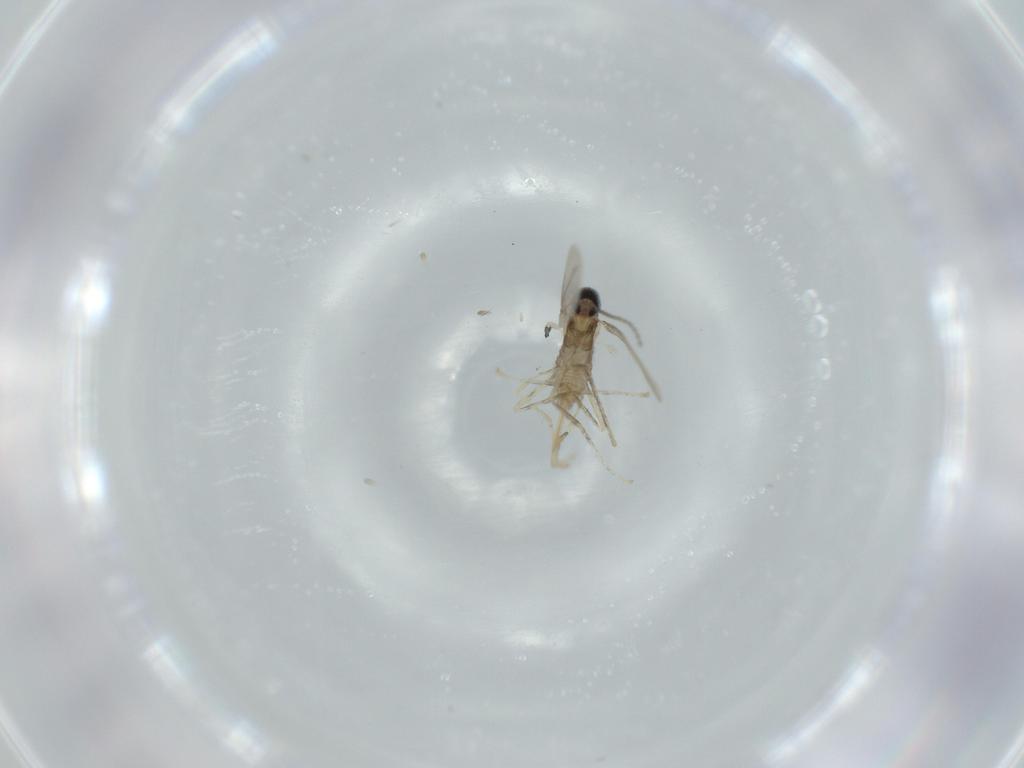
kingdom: Animalia
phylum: Arthropoda
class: Insecta
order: Diptera
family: Cecidomyiidae
